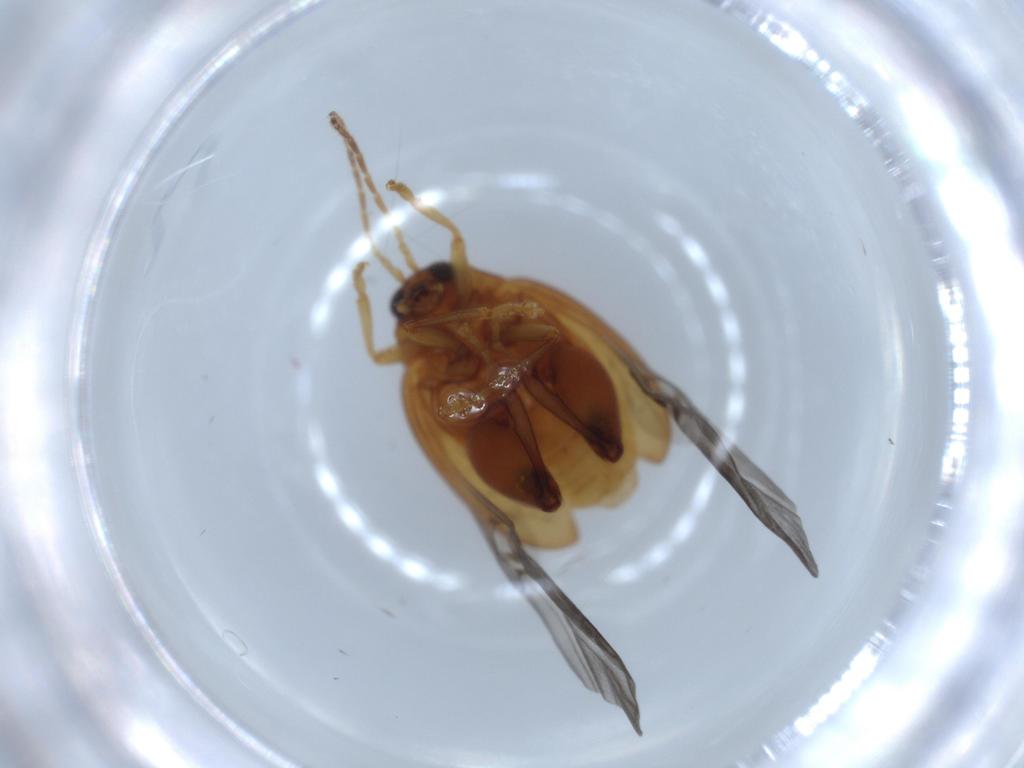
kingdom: Animalia
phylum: Arthropoda
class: Insecta
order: Coleoptera
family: Chrysomelidae
